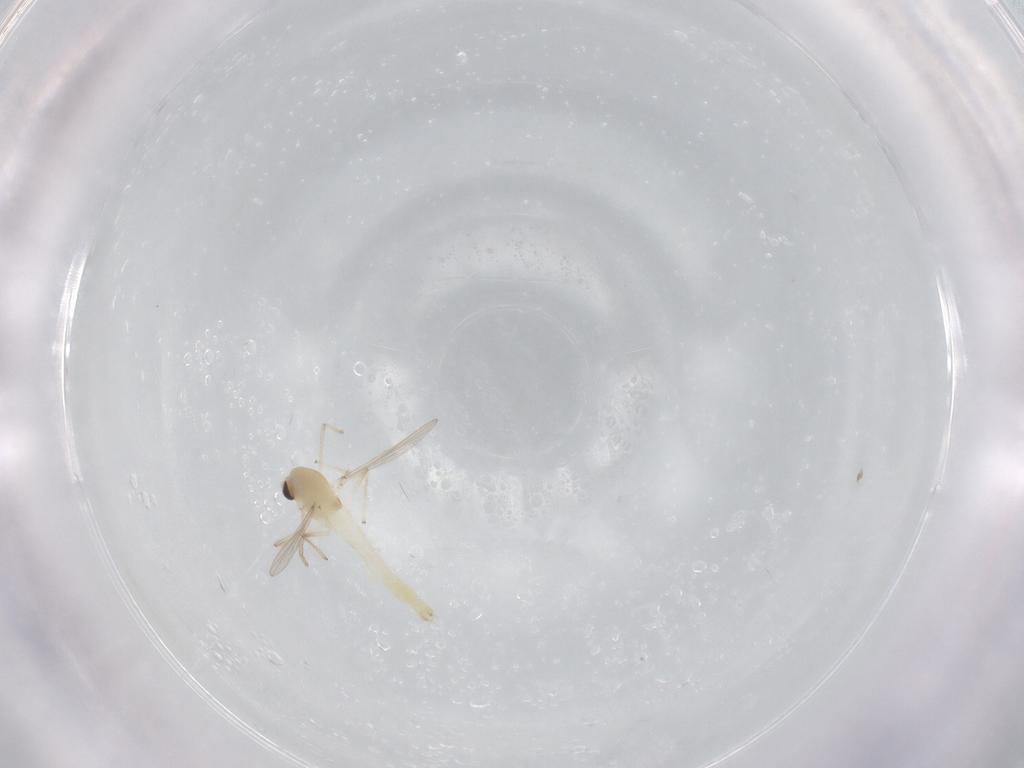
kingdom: Animalia
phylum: Arthropoda
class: Insecta
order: Diptera
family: Chironomidae
